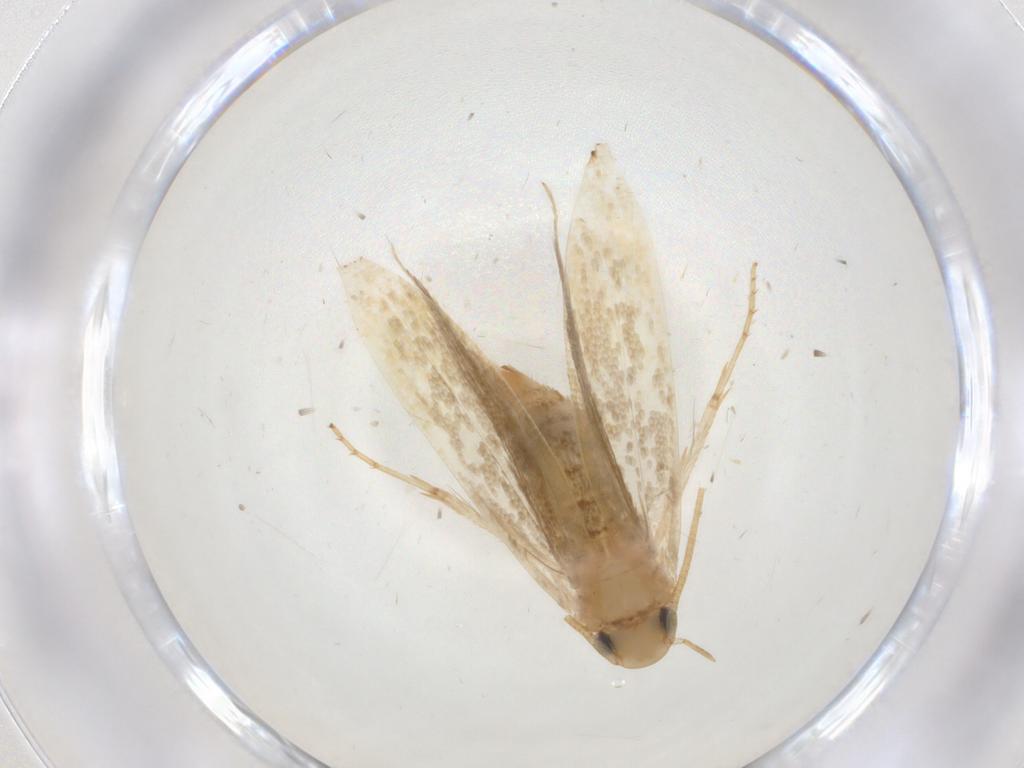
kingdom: Animalia
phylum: Arthropoda
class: Insecta
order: Lepidoptera
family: Tineidae
